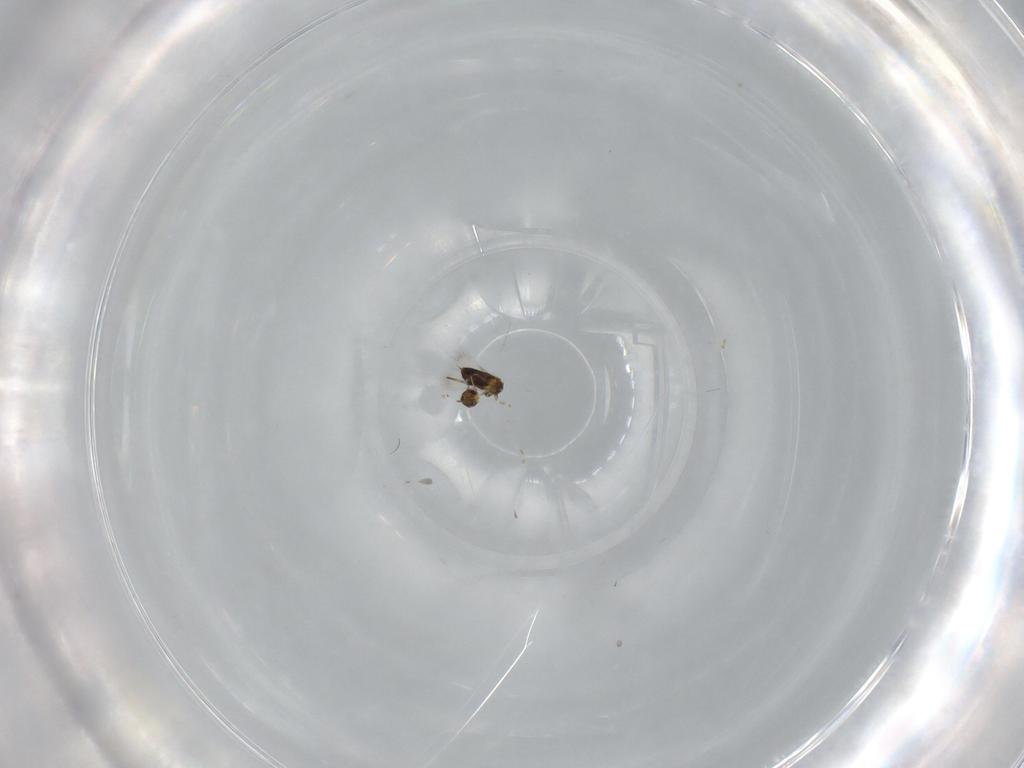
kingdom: Animalia
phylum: Arthropoda
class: Insecta
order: Hymenoptera
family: Signiphoridae
